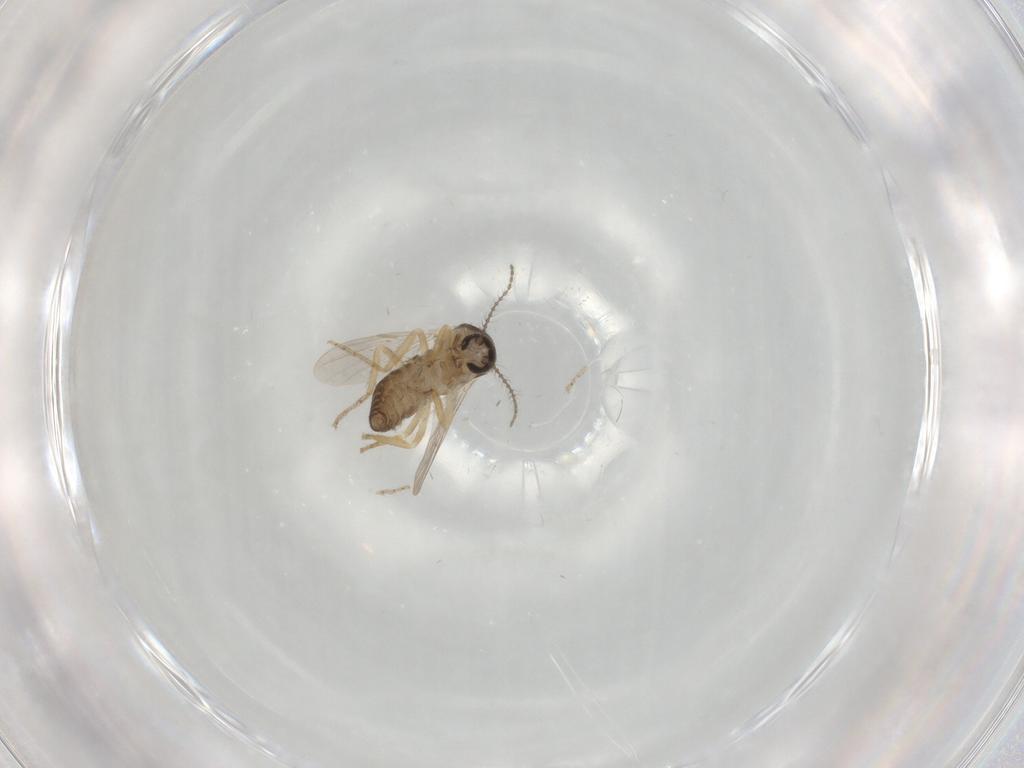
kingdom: Animalia
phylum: Arthropoda
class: Insecta
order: Diptera
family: Ceratopogonidae
